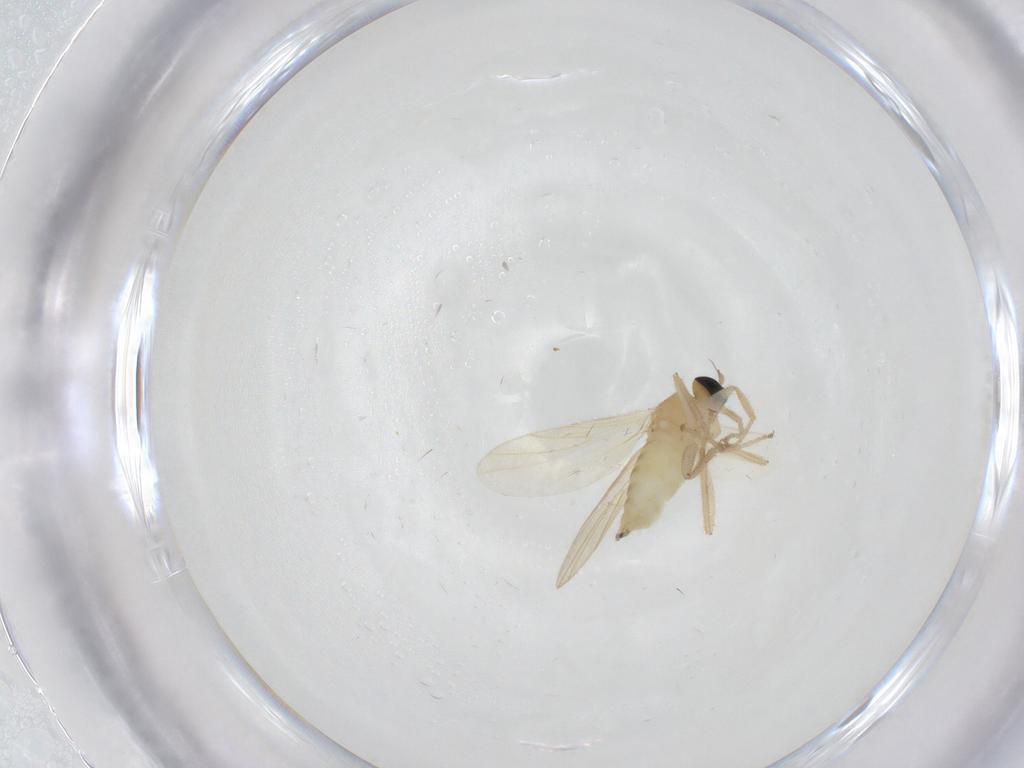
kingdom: Animalia
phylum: Arthropoda
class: Insecta
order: Diptera
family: Hybotidae
